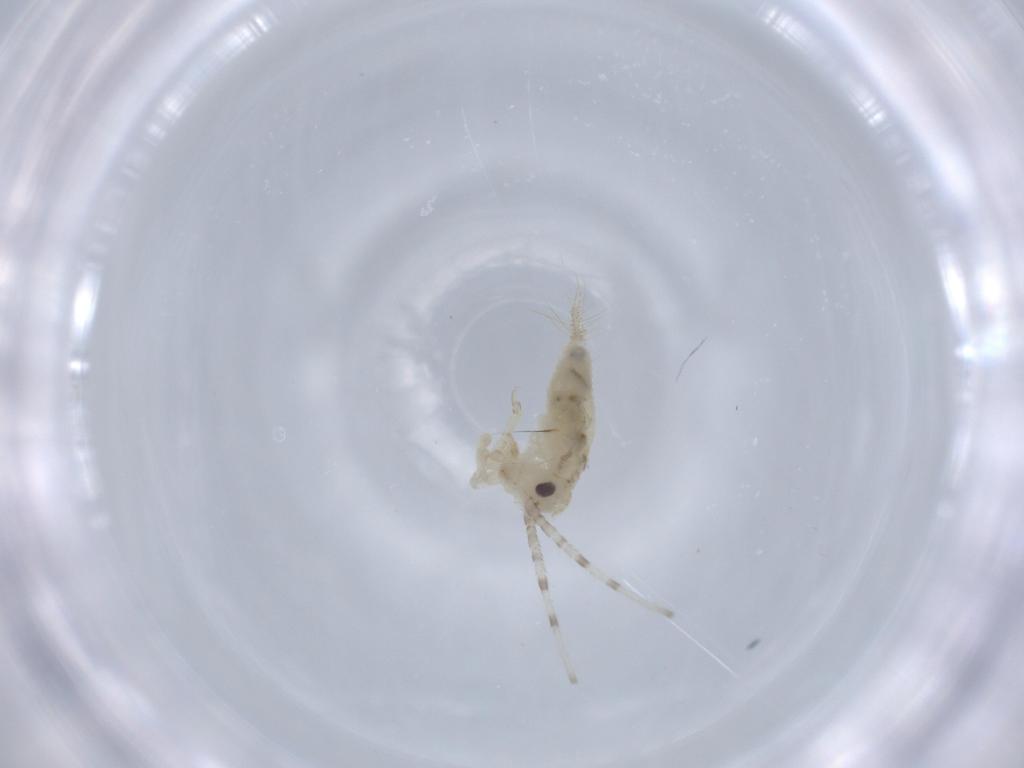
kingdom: Animalia
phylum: Arthropoda
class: Insecta
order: Orthoptera
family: Trigonidiidae
